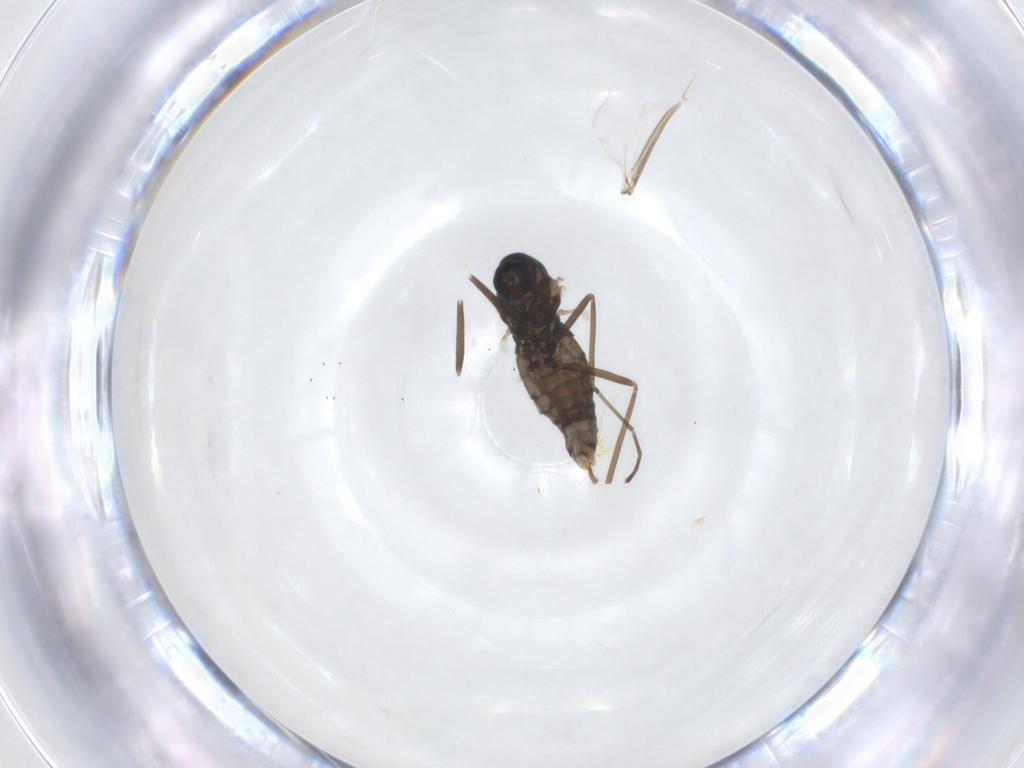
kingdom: Animalia
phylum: Arthropoda
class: Insecta
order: Diptera
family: Cecidomyiidae
